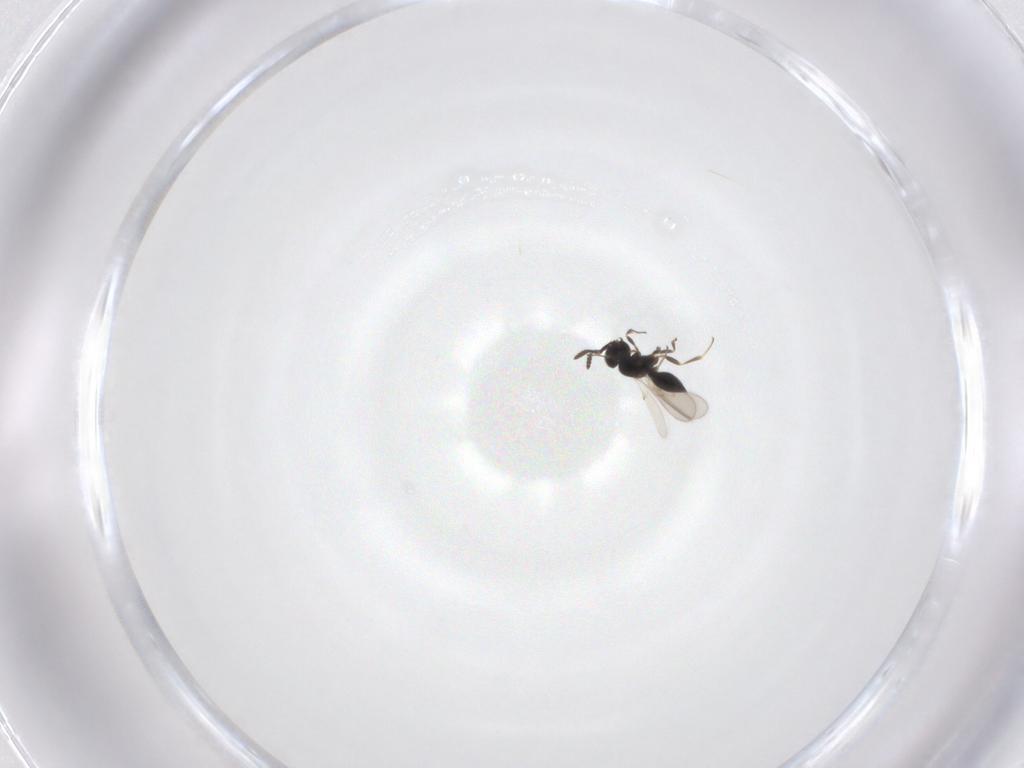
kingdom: Animalia
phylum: Arthropoda
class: Insecta
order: Hymenoptera
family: Scelionidae
